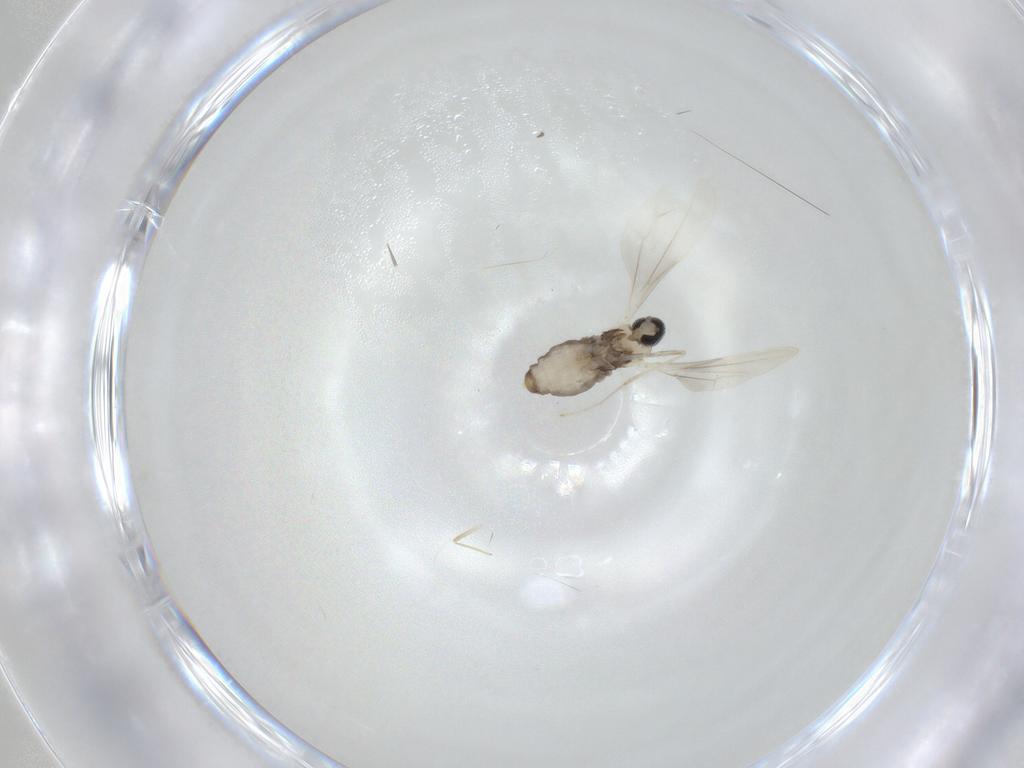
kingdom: Animalia
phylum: Arthropoda
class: Insecta
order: Diptera
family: Cecidomyiidae
